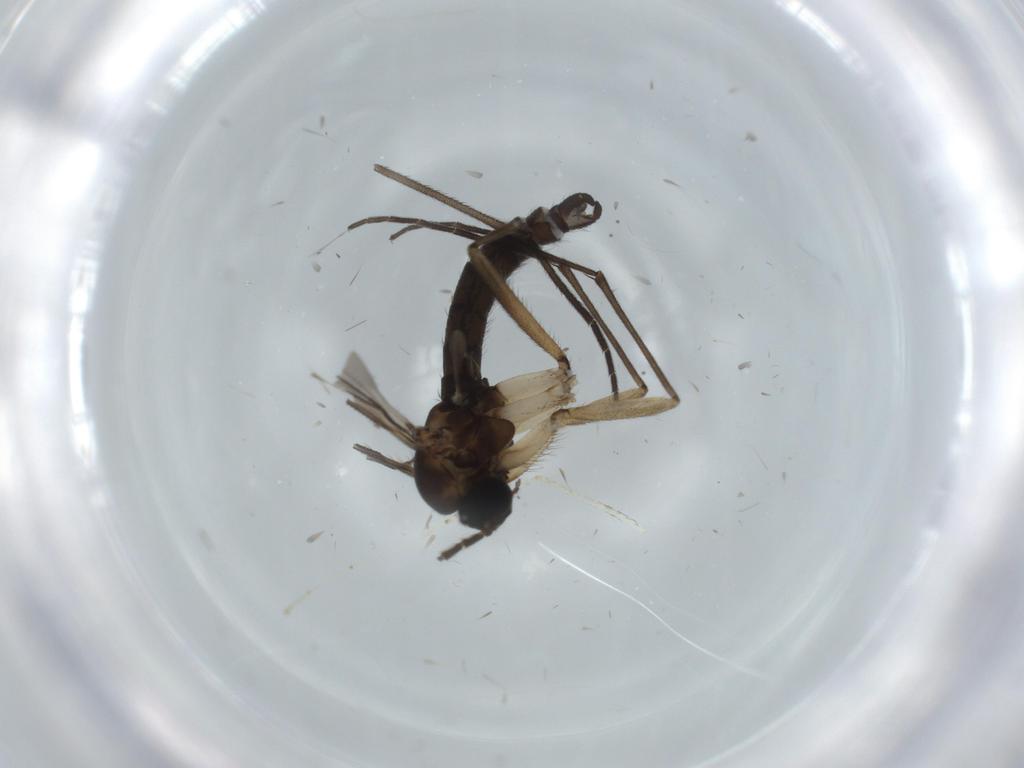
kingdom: Animalia
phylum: Arthropoda
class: Insecta
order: Diptera
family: Sciaridae
